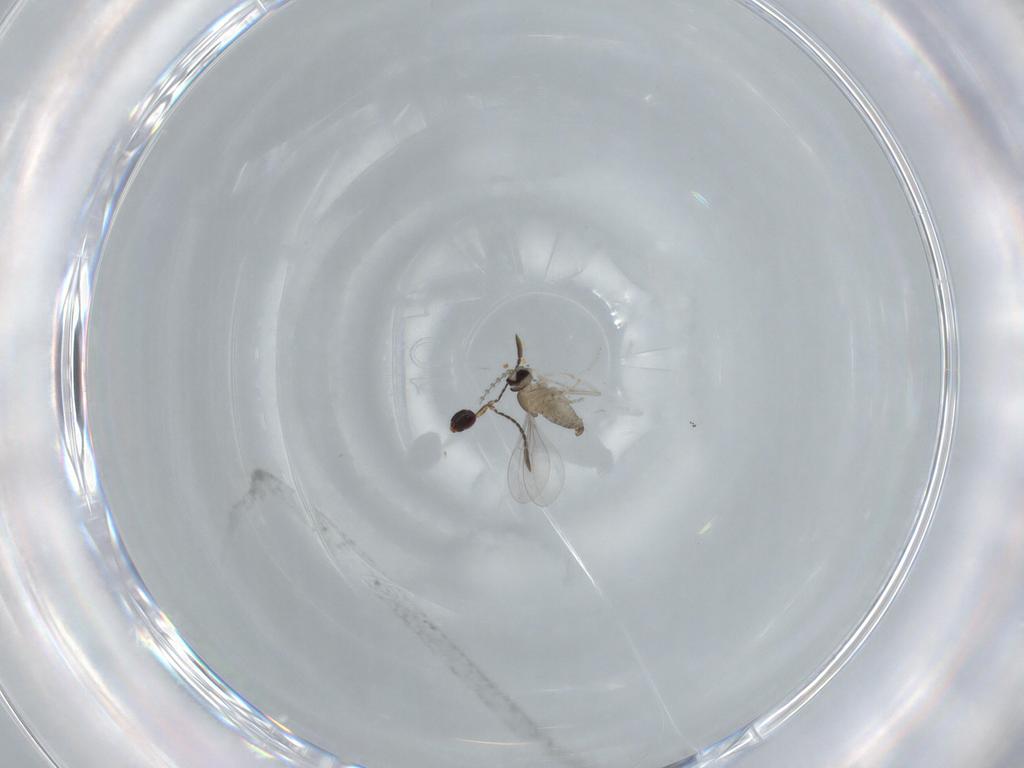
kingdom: Animalia
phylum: Arthropoda
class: Insecta
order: Diptera
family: Cecidomyiidae
